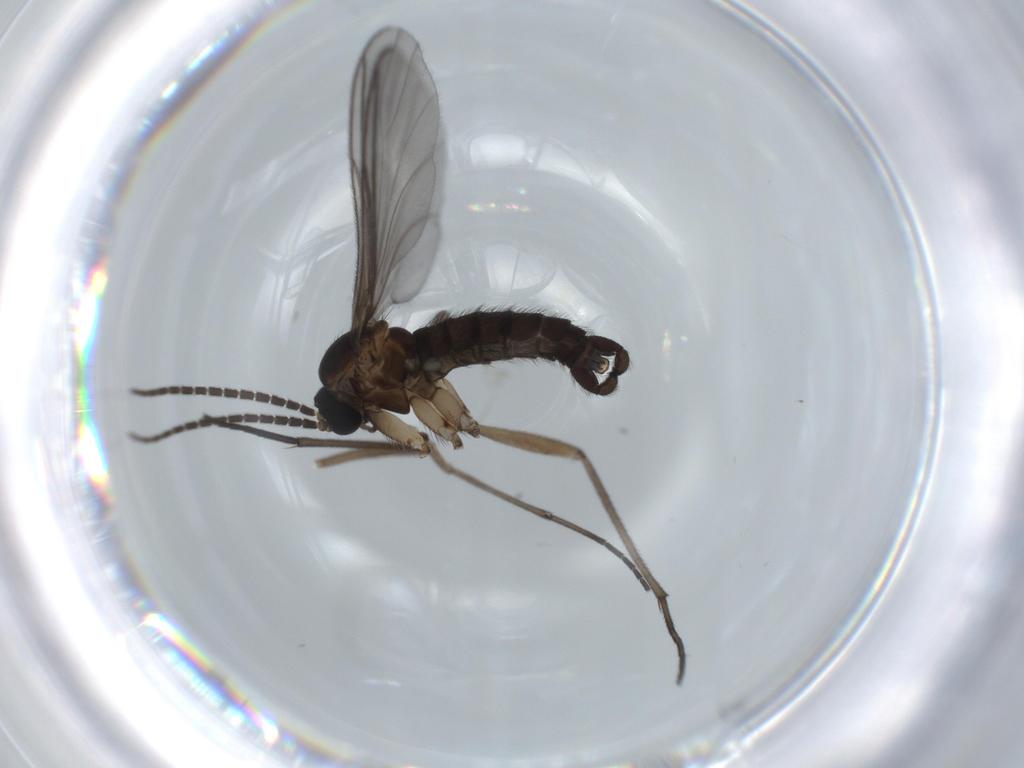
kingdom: Animalia
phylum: Arthropoda
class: Insecta
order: Diptera
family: Sciaridae
